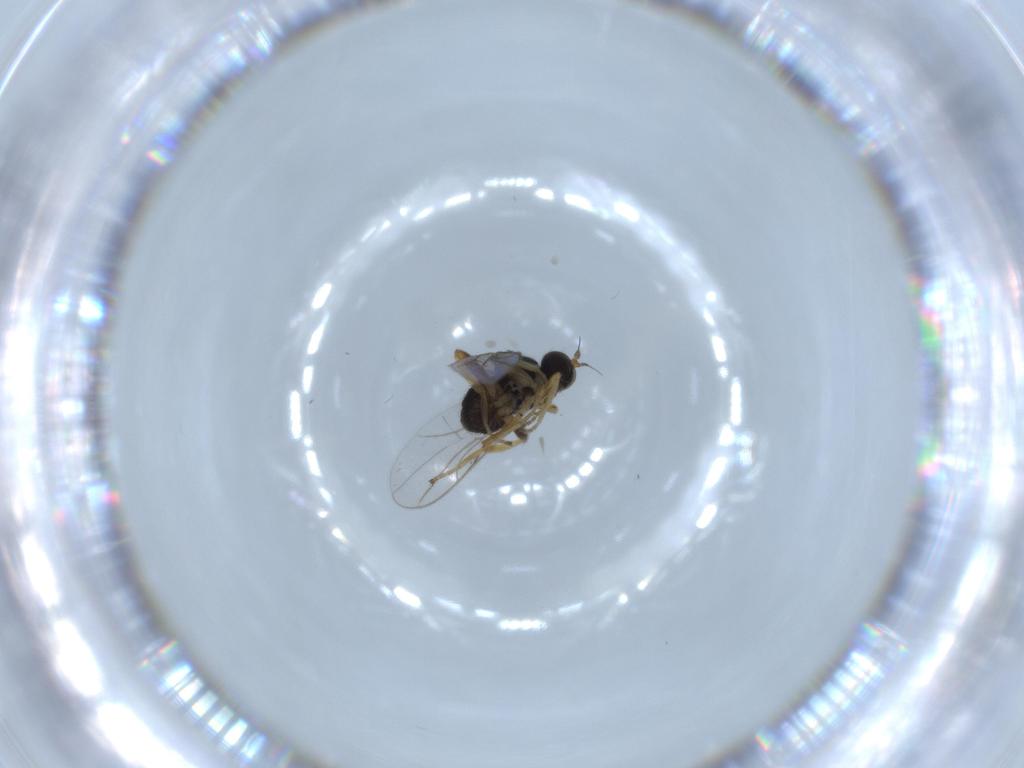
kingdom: Animalia
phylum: Arthropoda
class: Insecta
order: Diptera
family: Hybotidae
